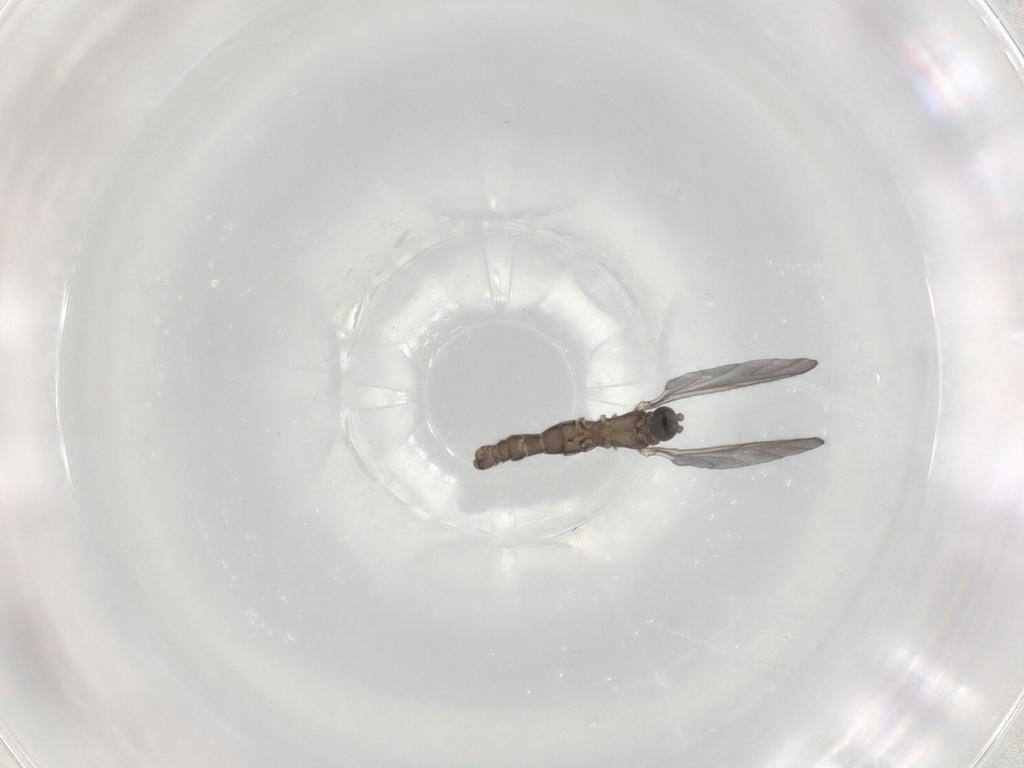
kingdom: Animalia
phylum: Arthropoda
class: Insecta
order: Diptera
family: Sciaridae
